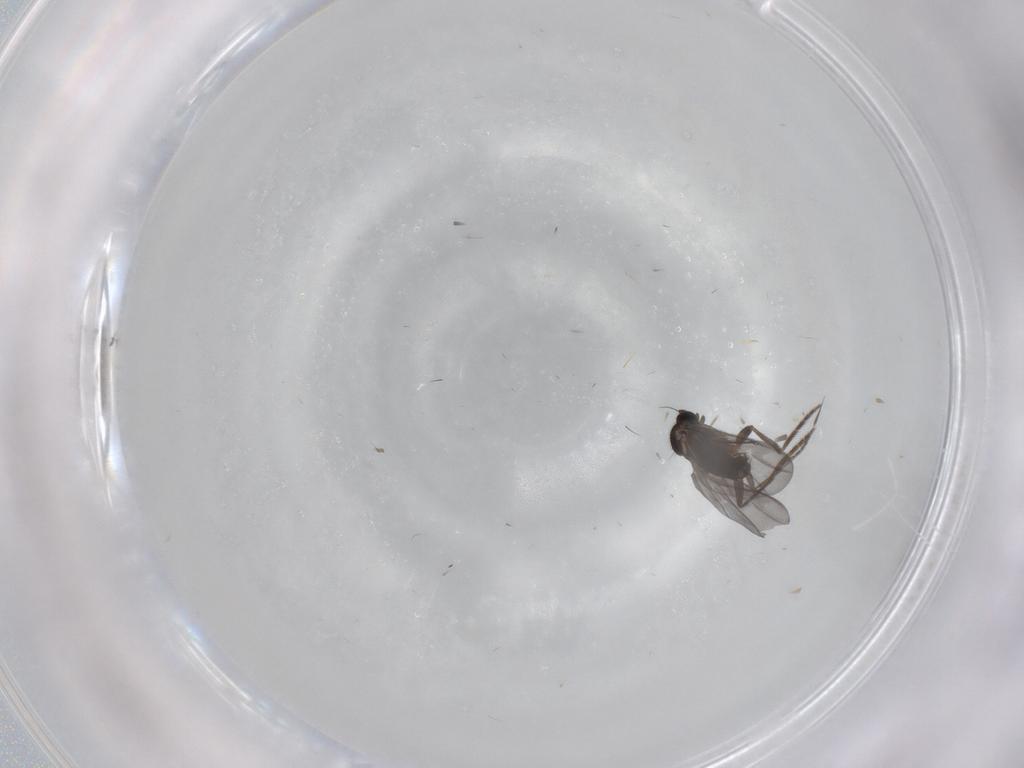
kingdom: Animalia
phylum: Arthropoda
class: Insecta
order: Diptera
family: Phoridae
